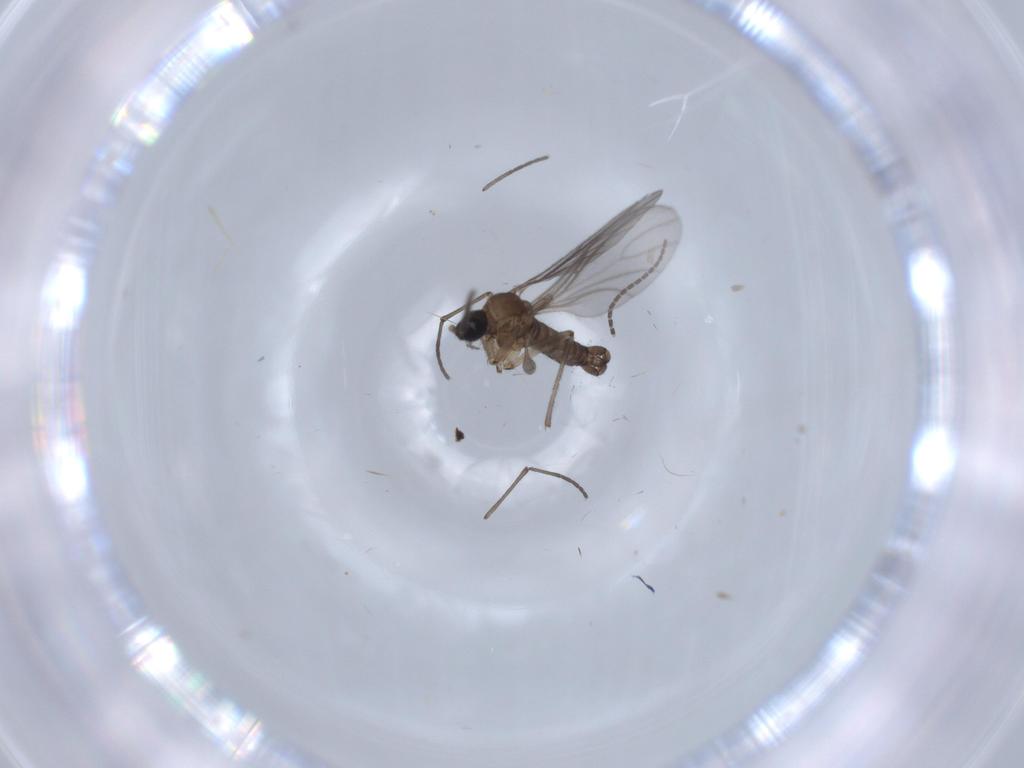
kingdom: Animalia
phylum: Arthropoda
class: Insecta
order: Diptera
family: Sciaridae
